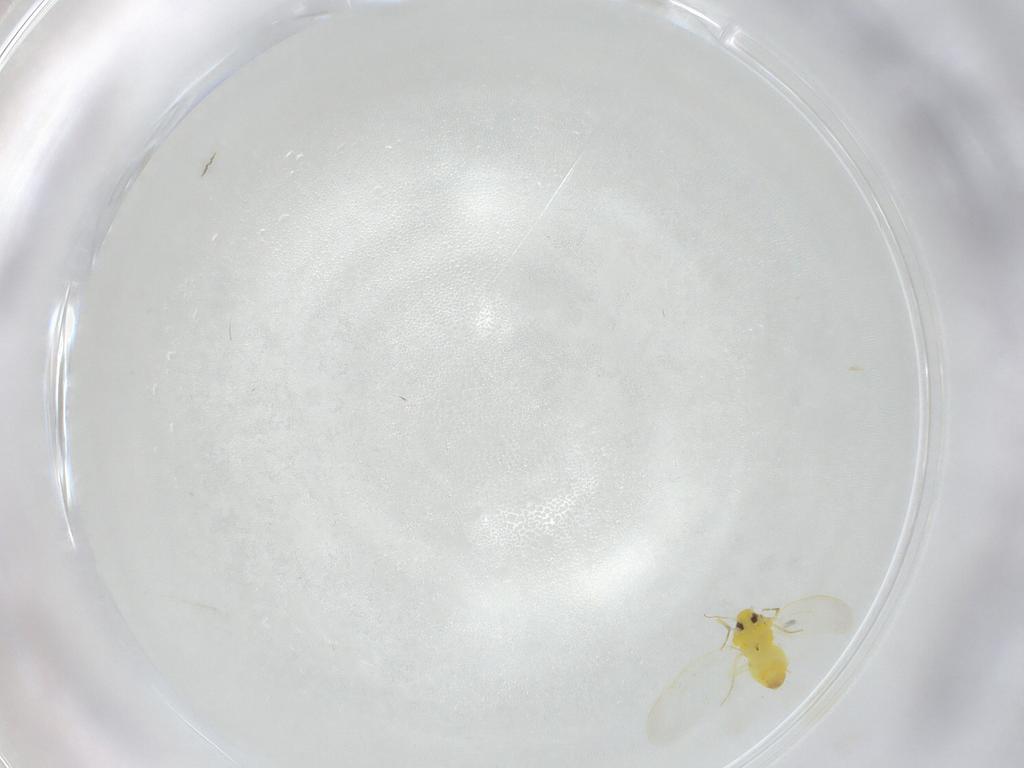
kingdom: Animalia
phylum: Arthropoda
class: Insecta
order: Hemiptera
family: Aleyrodidae
